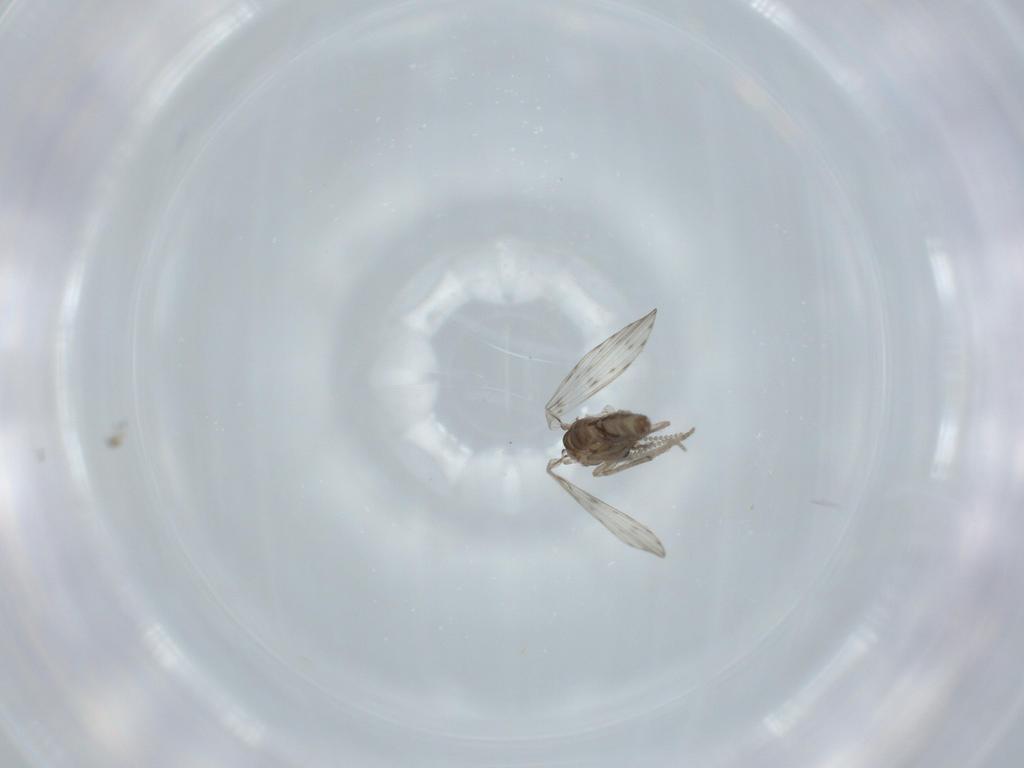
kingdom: Animalia
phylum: Arthropoda
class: Insecta
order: Diptera
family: Psychodidae
